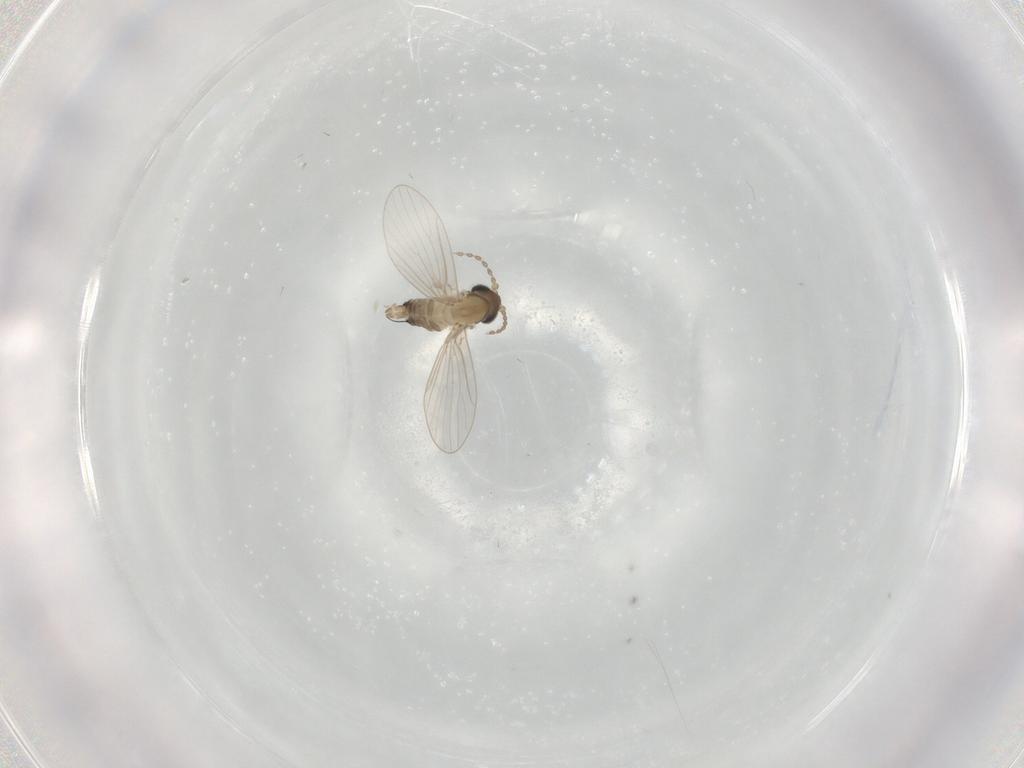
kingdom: Animalia
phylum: Arthropoda
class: Insecta
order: Diptera
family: Psychodidae
